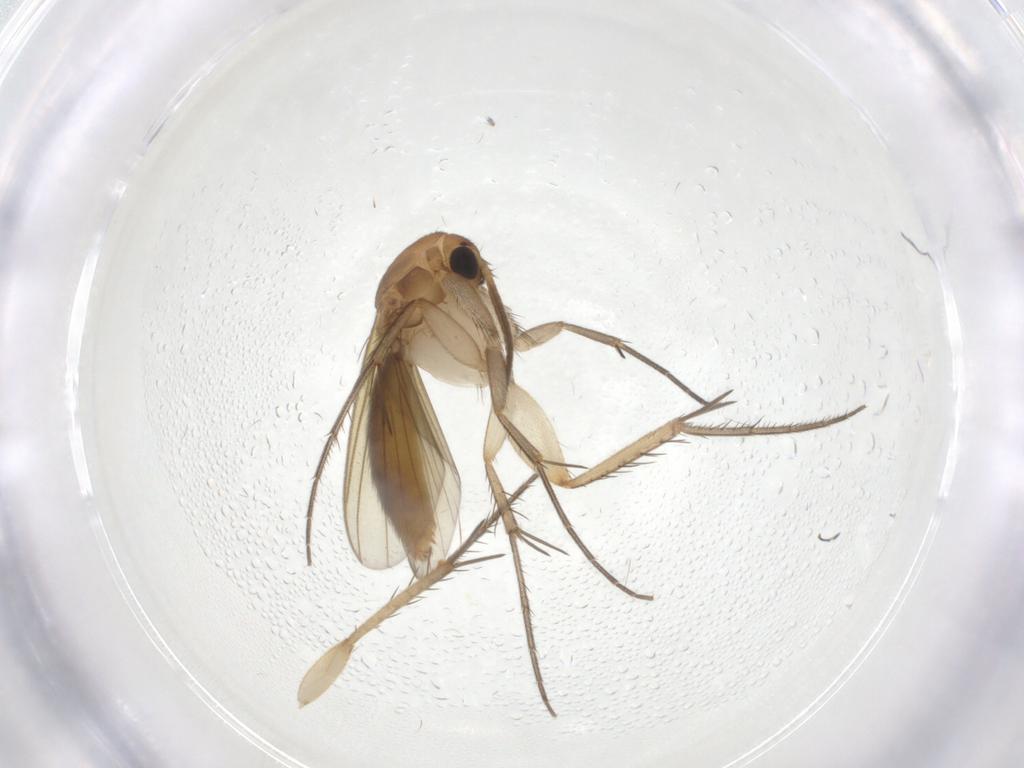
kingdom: Animalia
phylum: Arthropoda
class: Insecta
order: Diptera
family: Mycetophilidae
